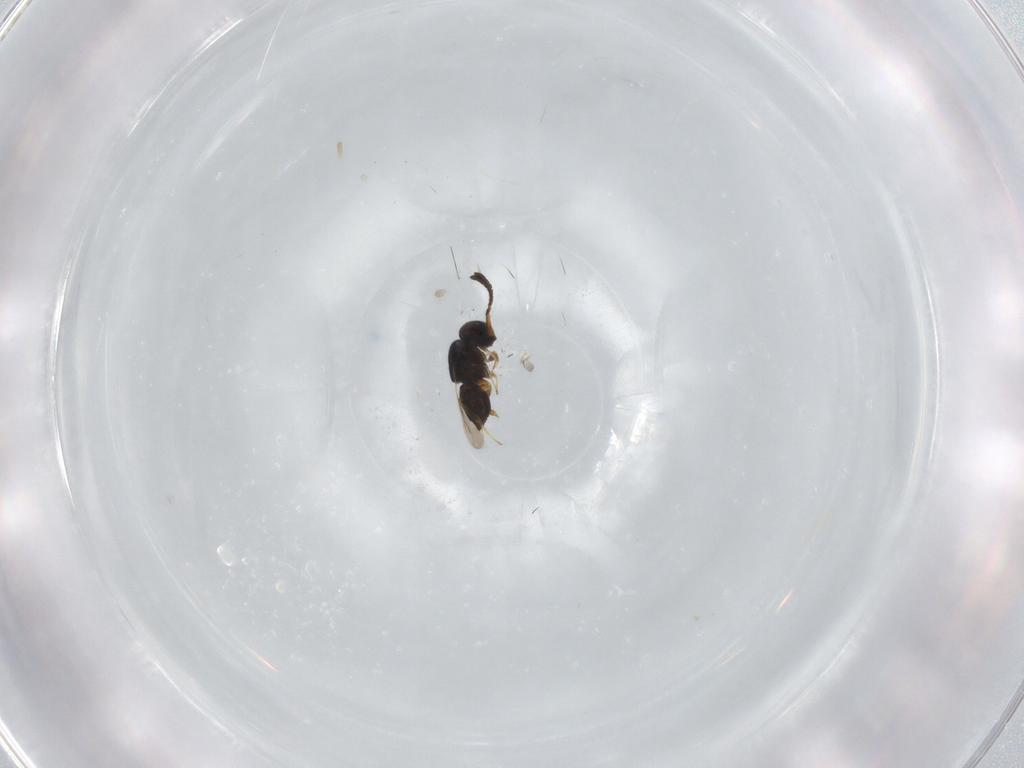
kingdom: Animalia
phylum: Arthropoda
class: Insecta
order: Hymenoptera
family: Ceraphronidae
